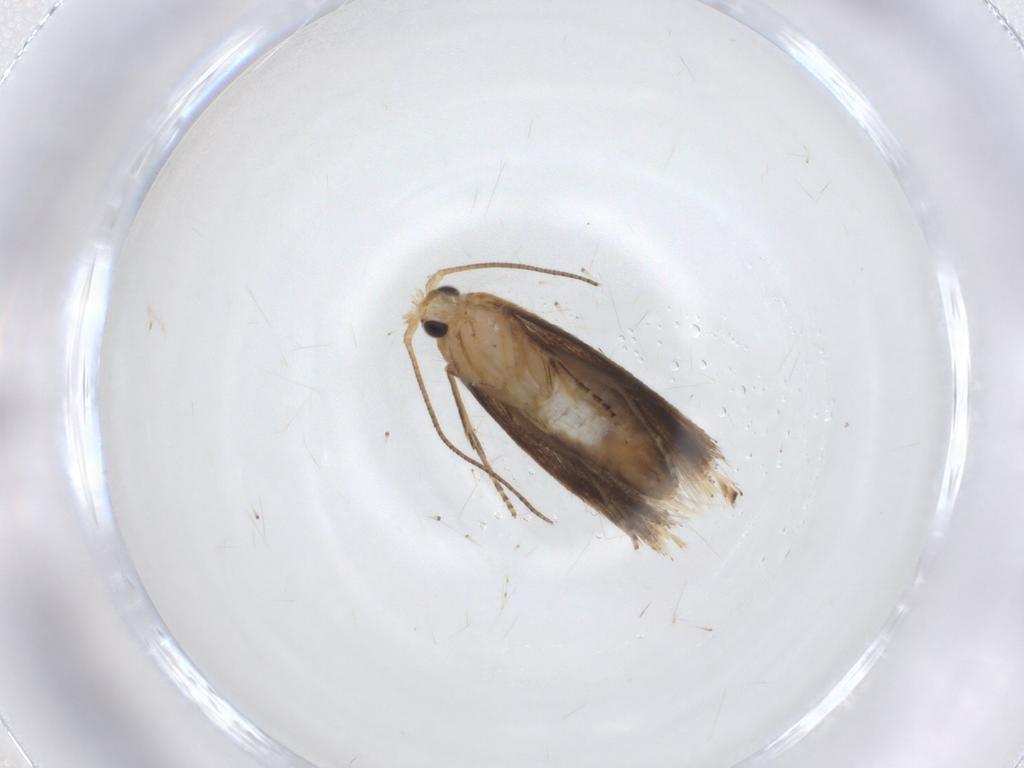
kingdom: Animalia
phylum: Arthropoda
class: Insecta
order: Lepidoptera
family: Bucculatricidae
